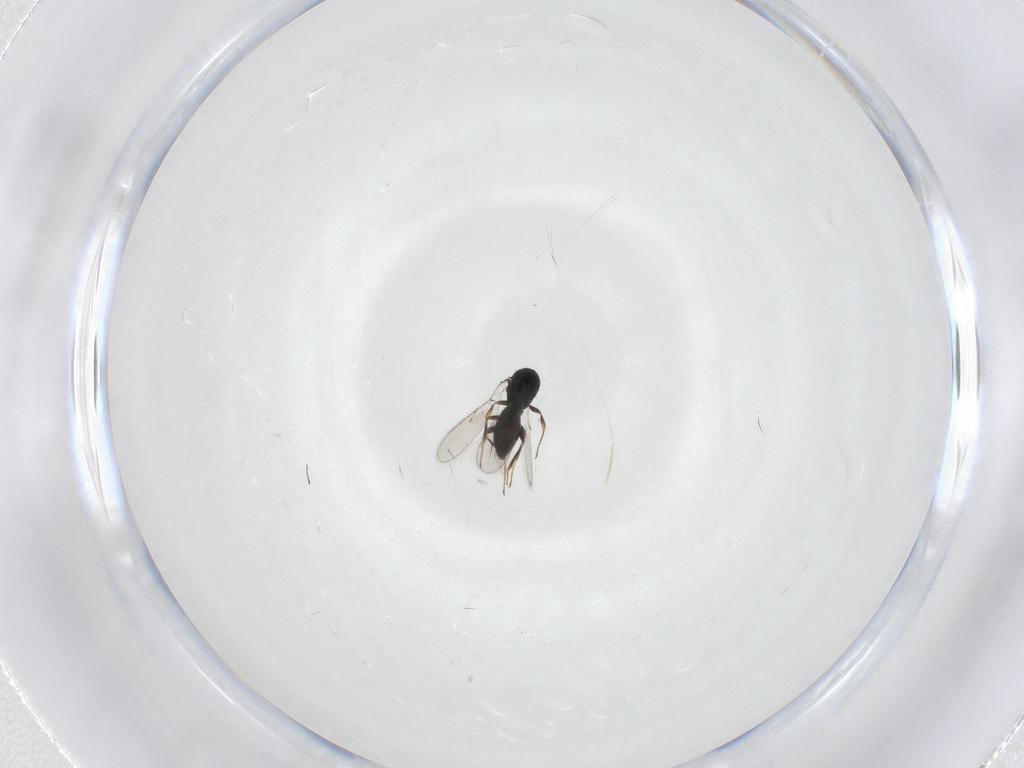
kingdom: Animalia
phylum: Arthropoda
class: Insecta
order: Hymenoptera
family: Scelionidae
